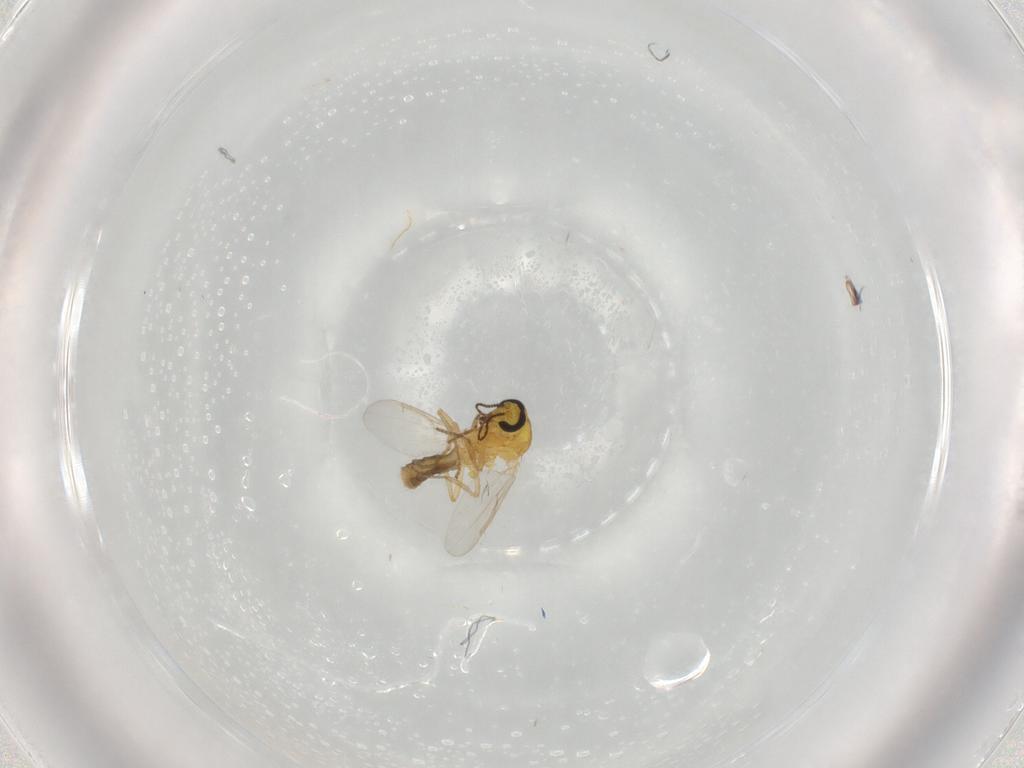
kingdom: Animalia
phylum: Arthropoda
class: Insecta
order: Diptera
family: Ceratopogonidae
